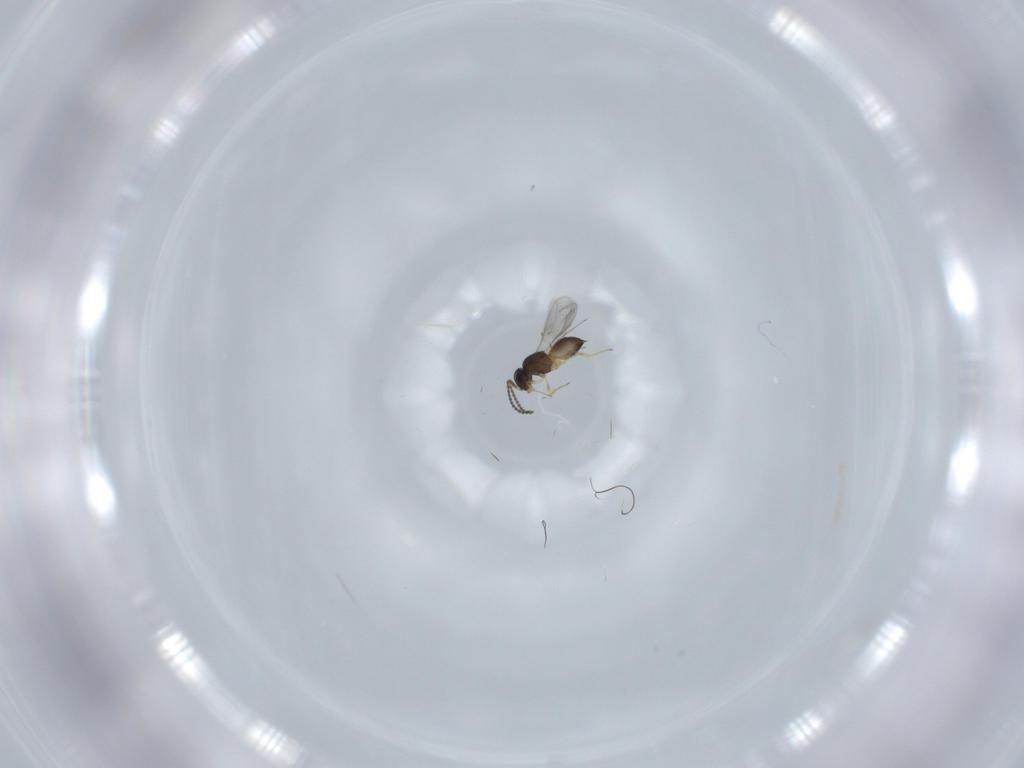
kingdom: Animalia
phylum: Arthropoda
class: Insecta
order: Hymenoptera
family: Scelionidae
